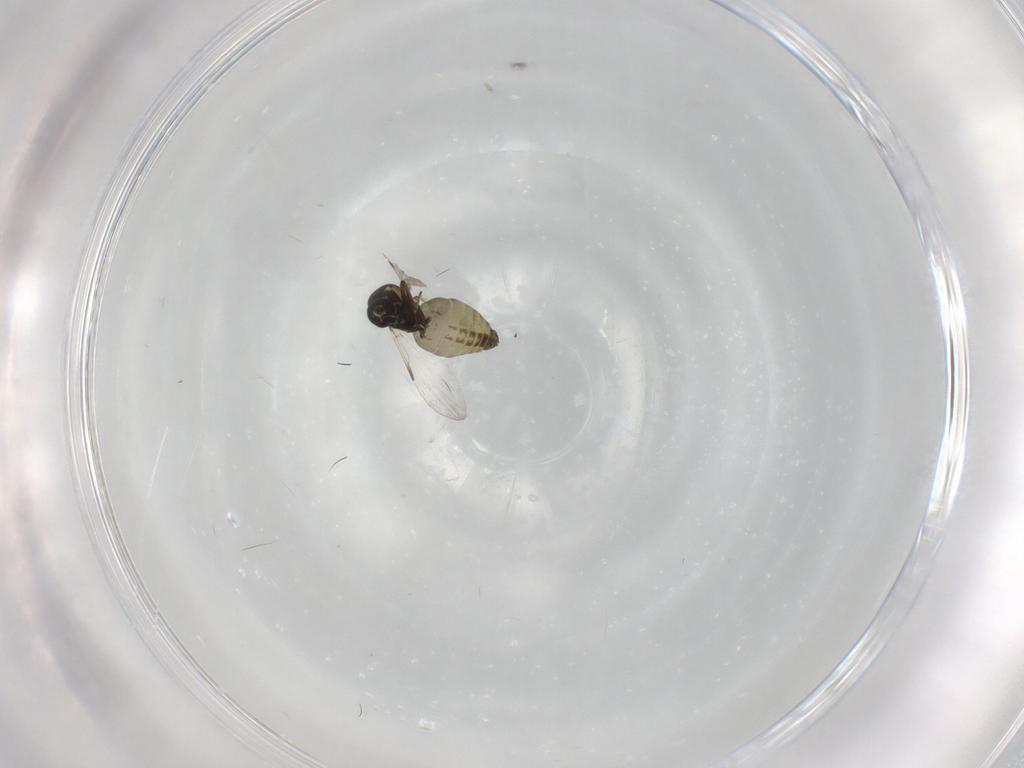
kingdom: Animalia
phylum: Arthropoda
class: Insecta
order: Diptera
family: Ceratopogonidae
